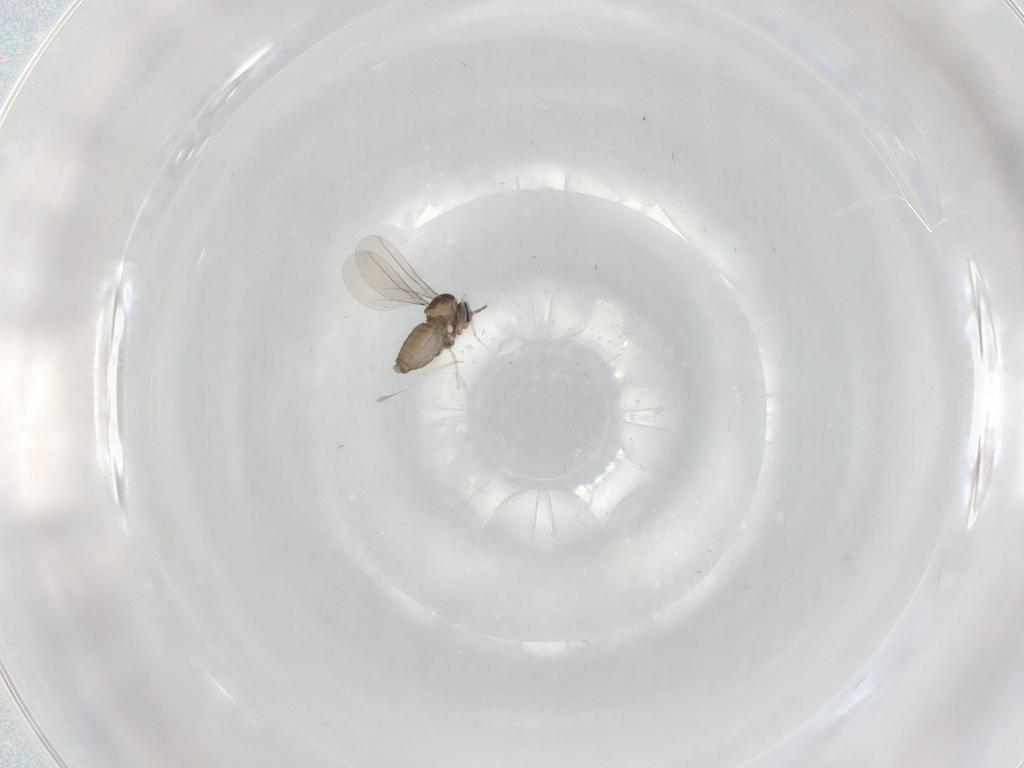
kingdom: Animalia
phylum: Arthropoda
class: Insecta
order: Diptera
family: Cecidomyiidae
